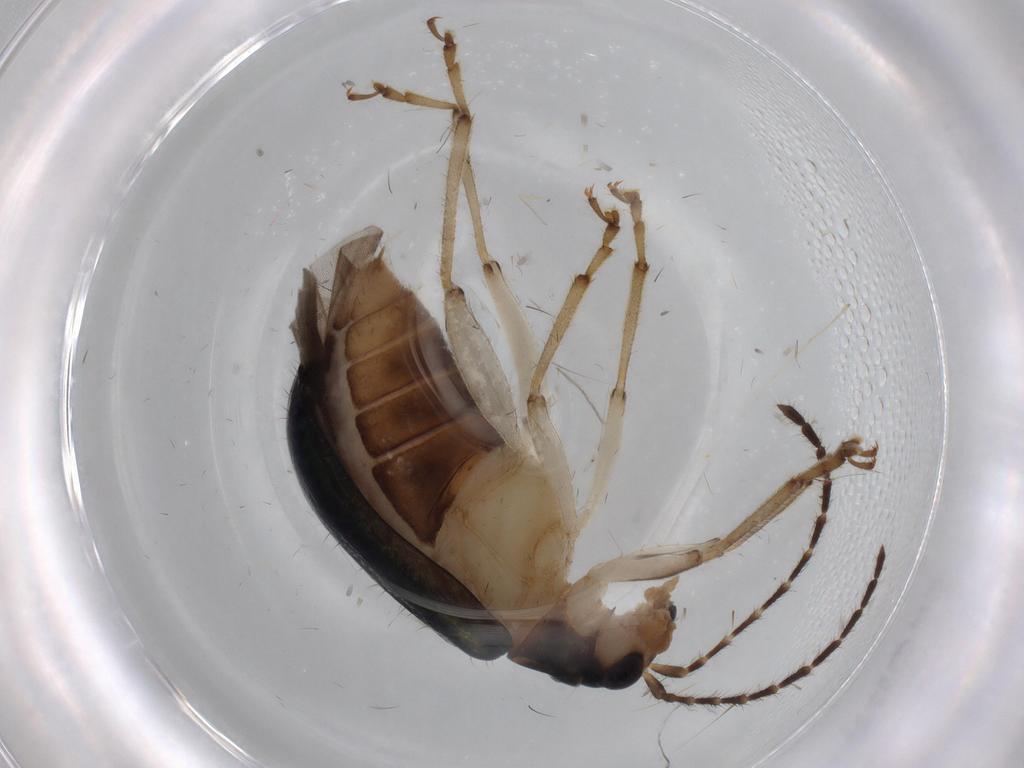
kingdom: Animalia
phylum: Arthropoda
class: Insecta
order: Coleoptera
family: Chrysomelidae
